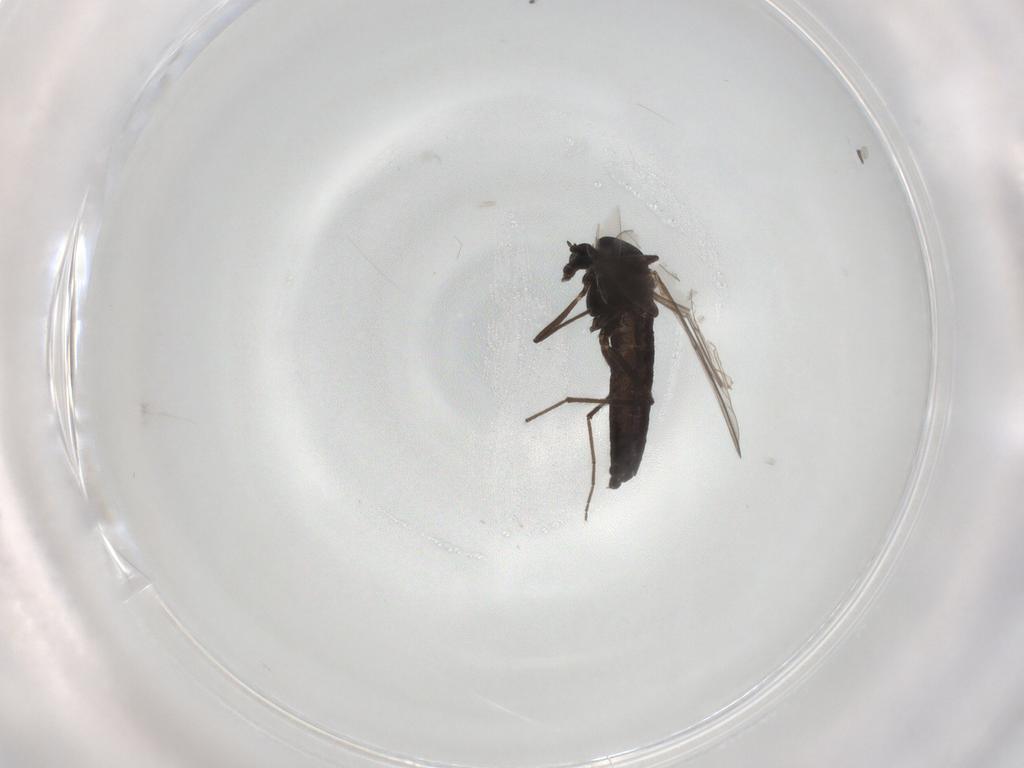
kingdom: Animalia
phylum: Arthropoda
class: Insecta
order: Diptera
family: Chironomidae
